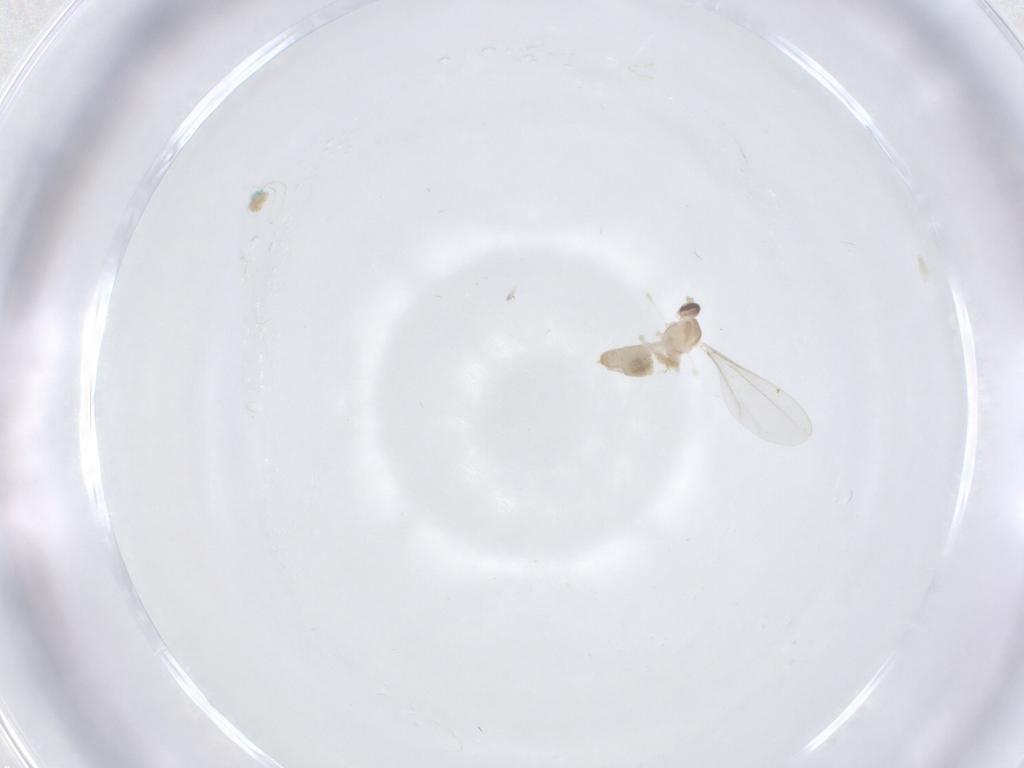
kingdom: Animalia
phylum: Arthropoda
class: Insecta
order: Diptera
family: Cecidomyiidae
